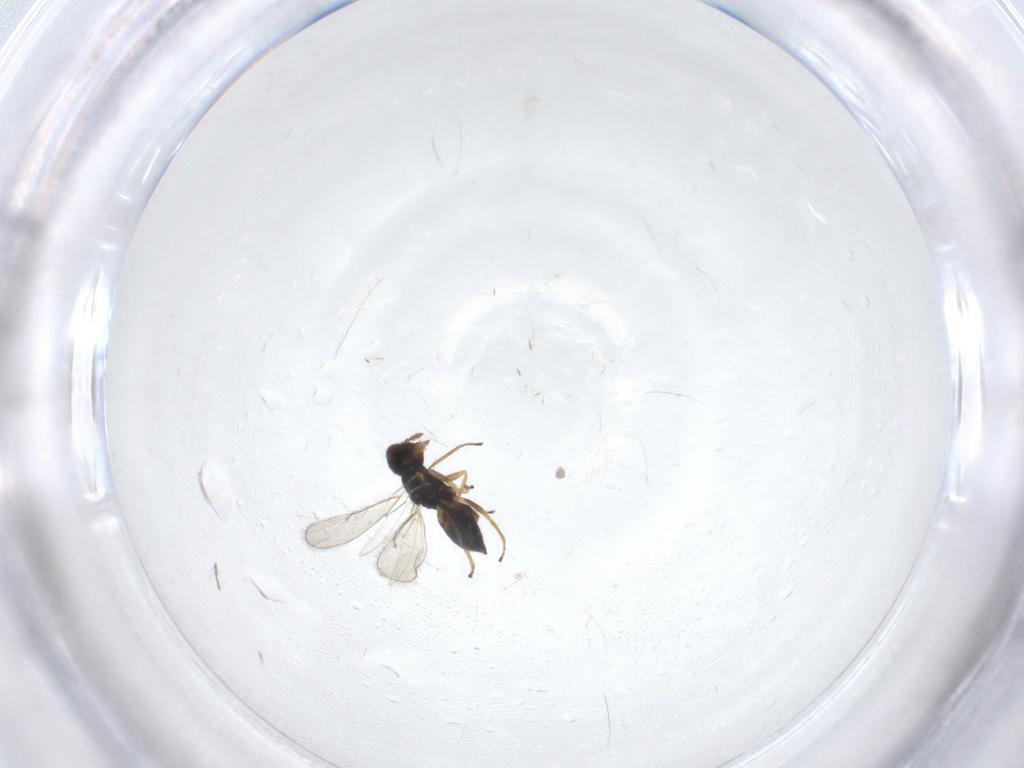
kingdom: Animalia
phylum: Arthropoda
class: Insecta
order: Hymenoptera
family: Eulophidae
